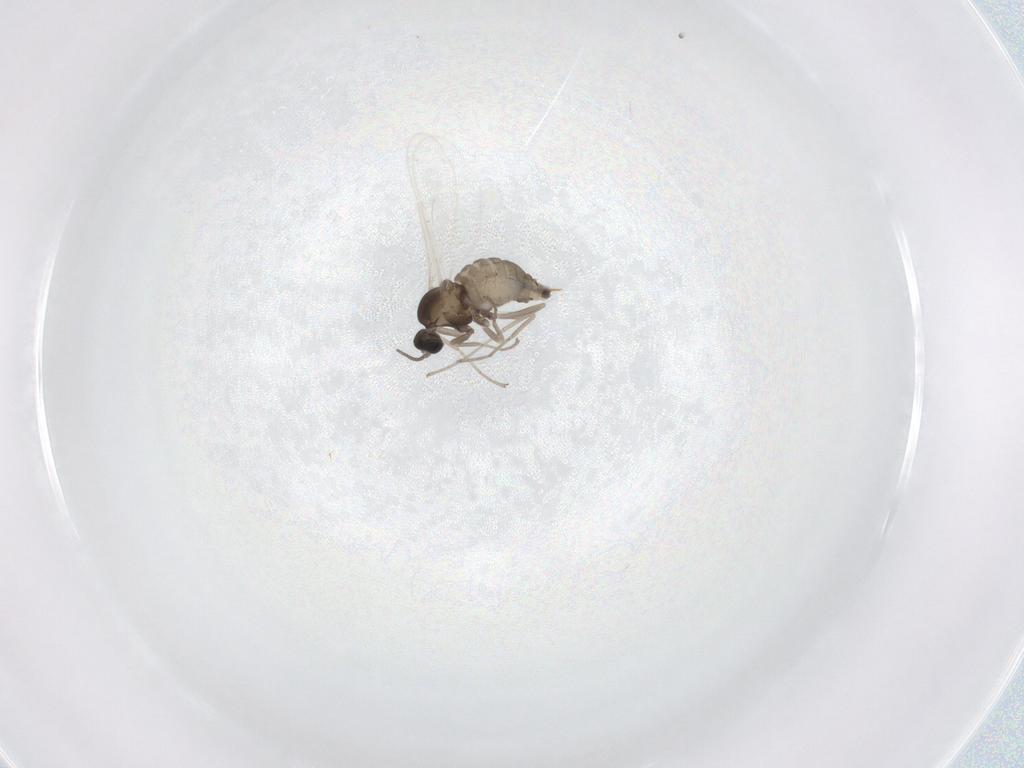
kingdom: Animalia
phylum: Arthropoda
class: Insecta
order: Diptera
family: Cecidomyiidae
